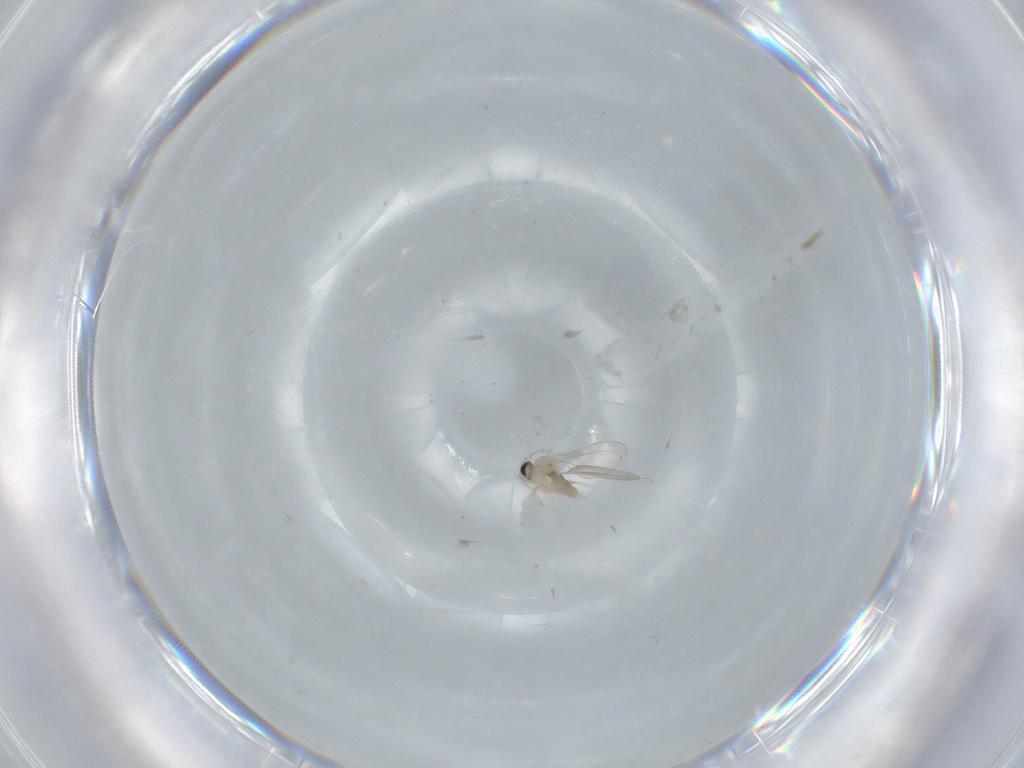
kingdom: Animalia
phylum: Arthropoda
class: Insecta
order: Diptera
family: Cecidomyiidae
